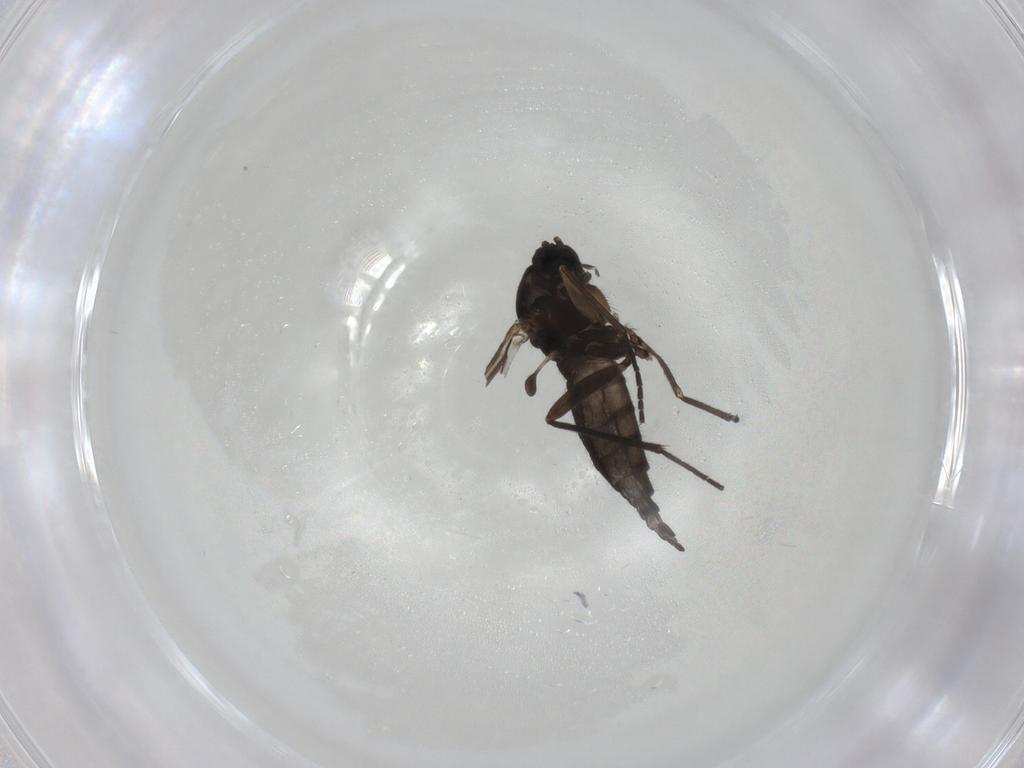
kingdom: Animalia
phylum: Arthropoda
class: Insecta
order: Diptera
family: Sciaridae
